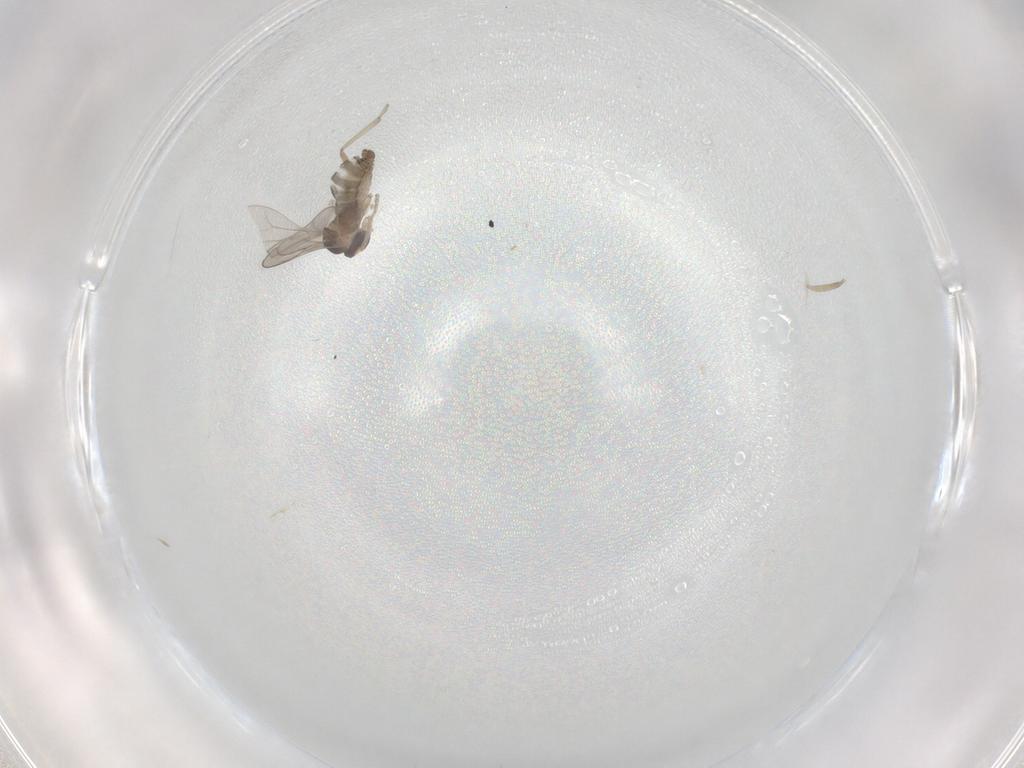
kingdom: Animalia
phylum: Arthropoda
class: Insecta
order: Diptera
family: Cecidomyiidae
